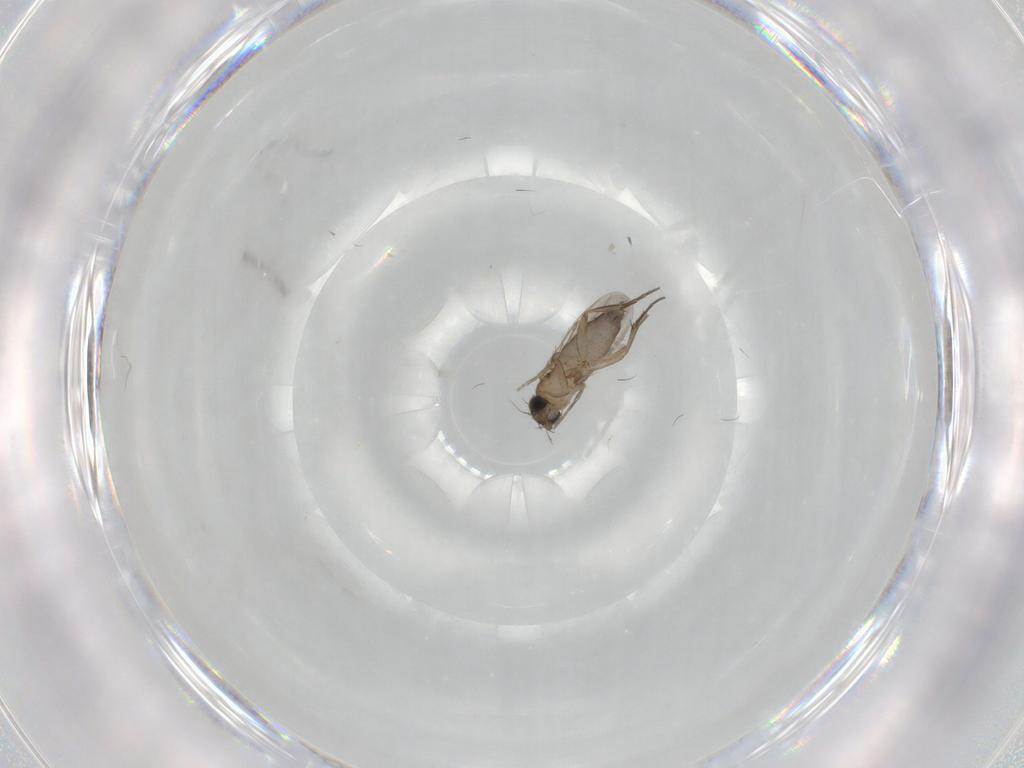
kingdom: Animalia
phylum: Arthropoda
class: Insecta
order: Diptera
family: Phoridae
